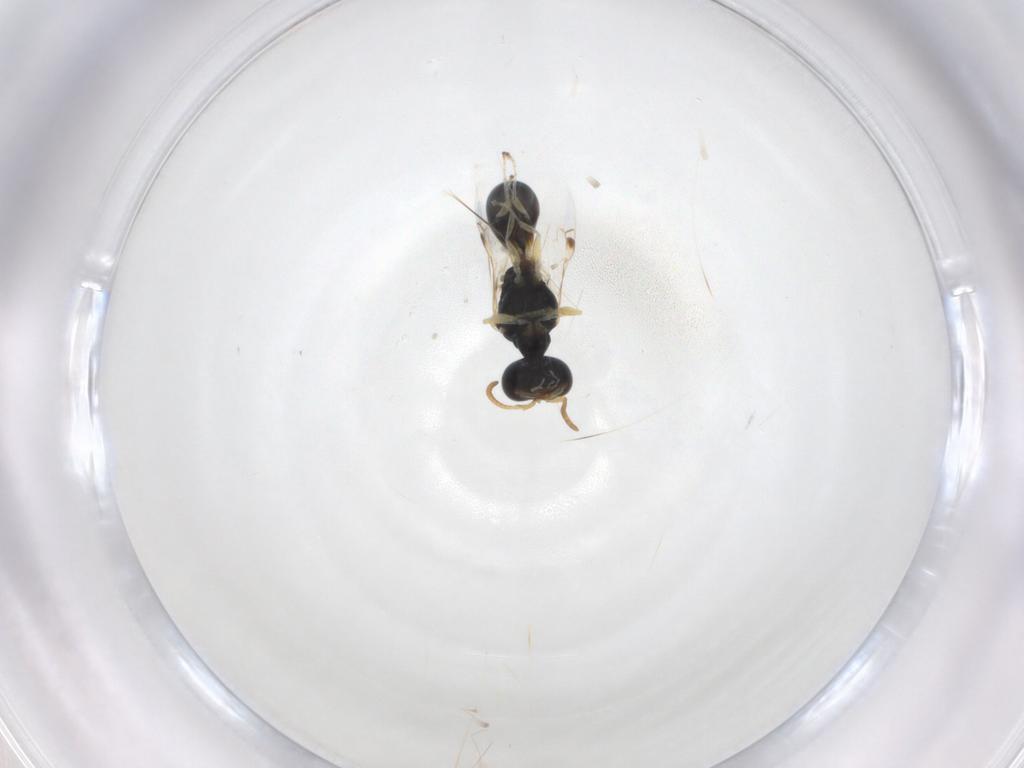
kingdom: Animalia
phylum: Arthropoda
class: Insecta
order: Hymenoptera
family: Pemphredonidae
